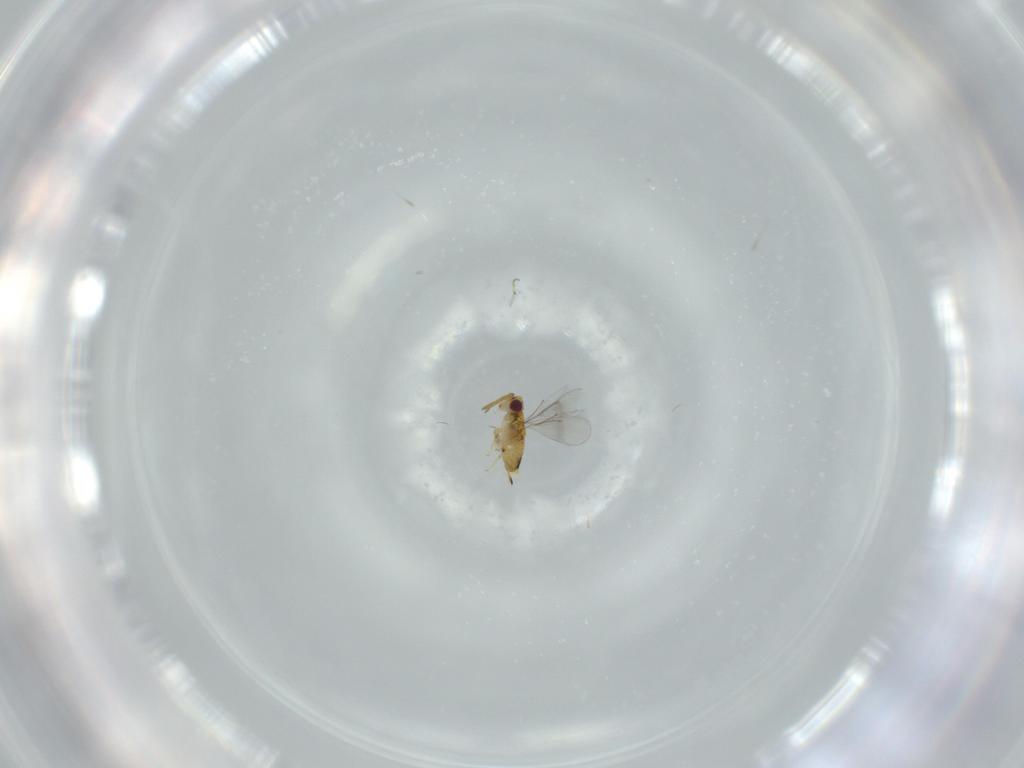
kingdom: Animalia
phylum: Arthropoda
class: Insecta
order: Hymenoptera
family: Aphelinidae
